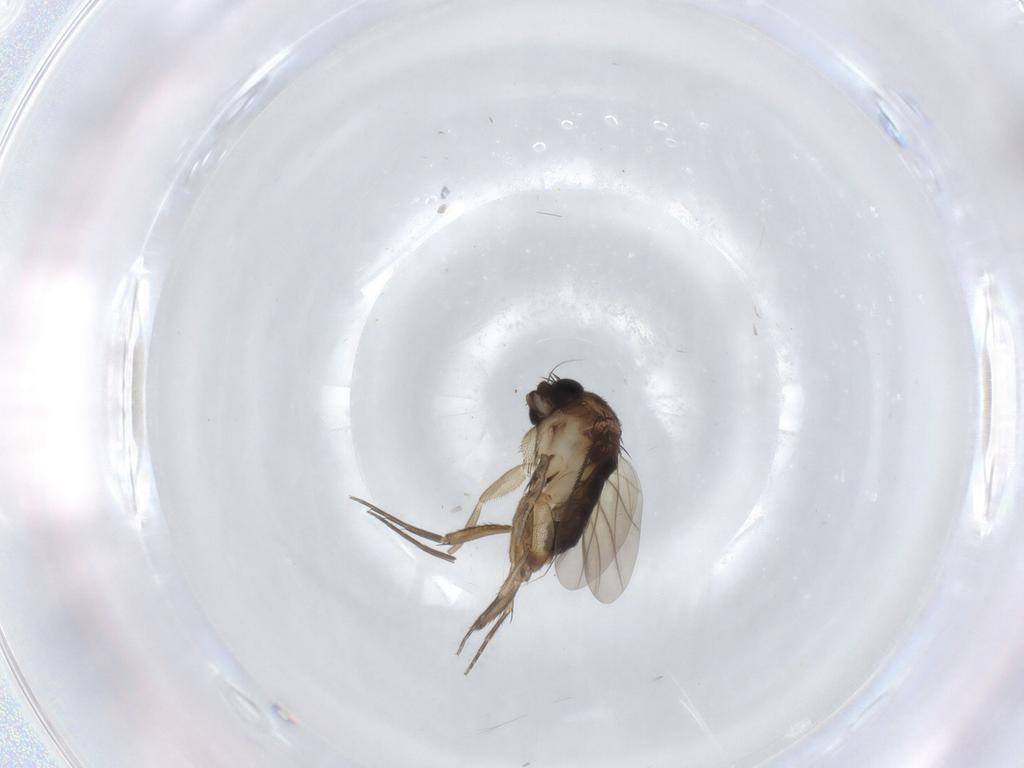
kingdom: Animalia
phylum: Arthropoda
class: Insecta
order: Diptera
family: Phoridae
